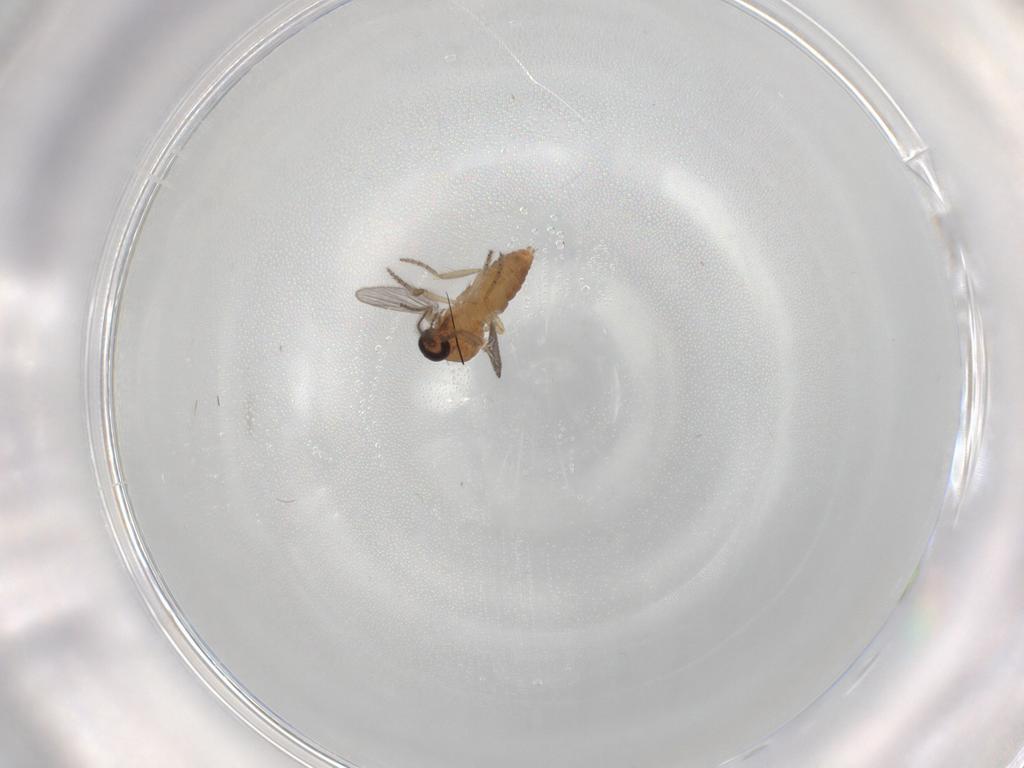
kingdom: Animalia
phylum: Arthropoda
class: Insecta
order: Diptera
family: Ceratopogonidae
